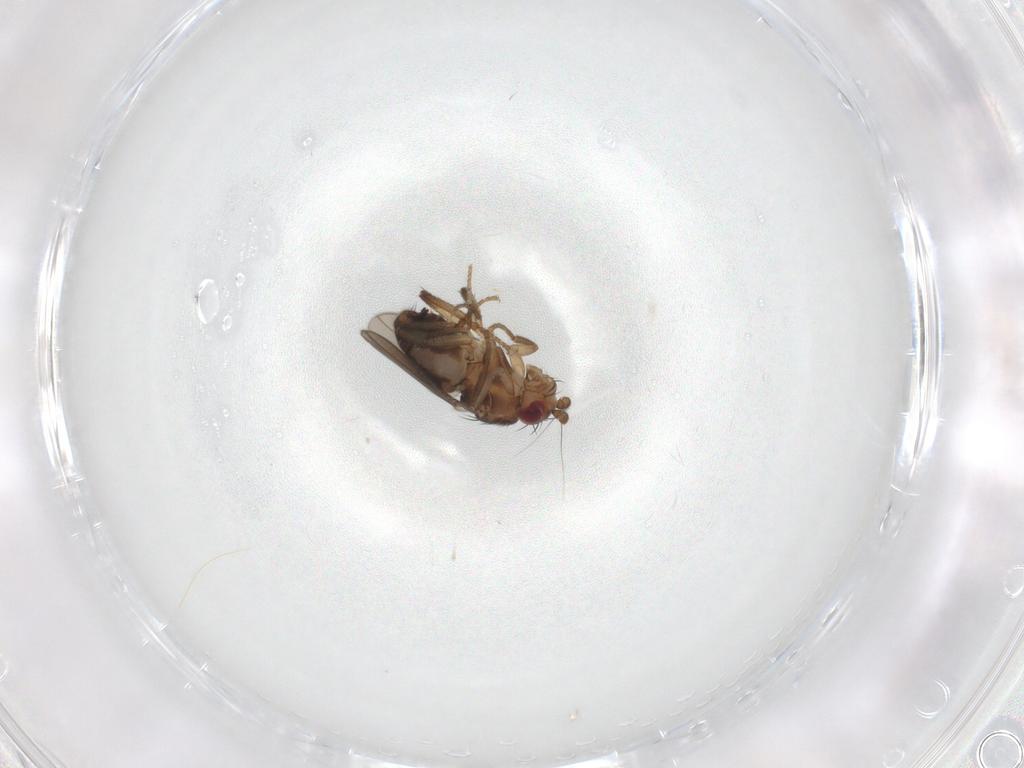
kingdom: Animalia
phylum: Arthropoda
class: Insecta
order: Diptera
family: Sphaeroceridae
